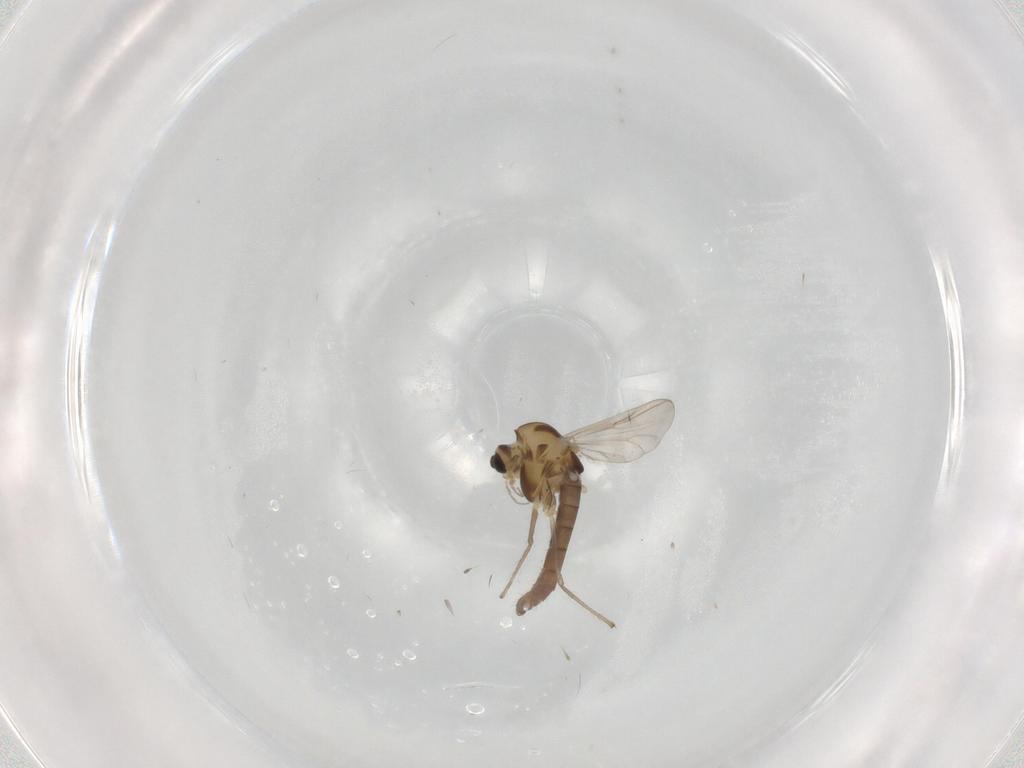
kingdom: Animalia
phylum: Arthropoda
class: Insecta
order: Diptera
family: Chironomidae
